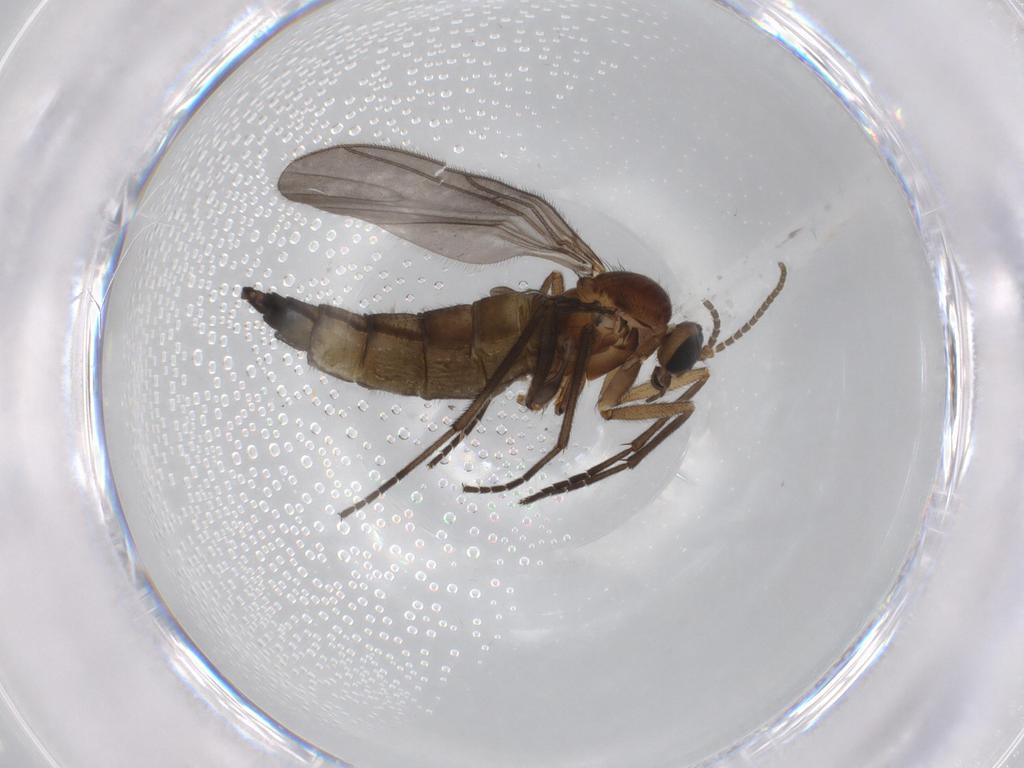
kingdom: Animalia
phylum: Arthropoda
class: Insecta
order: Diptera
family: Sciaridae
